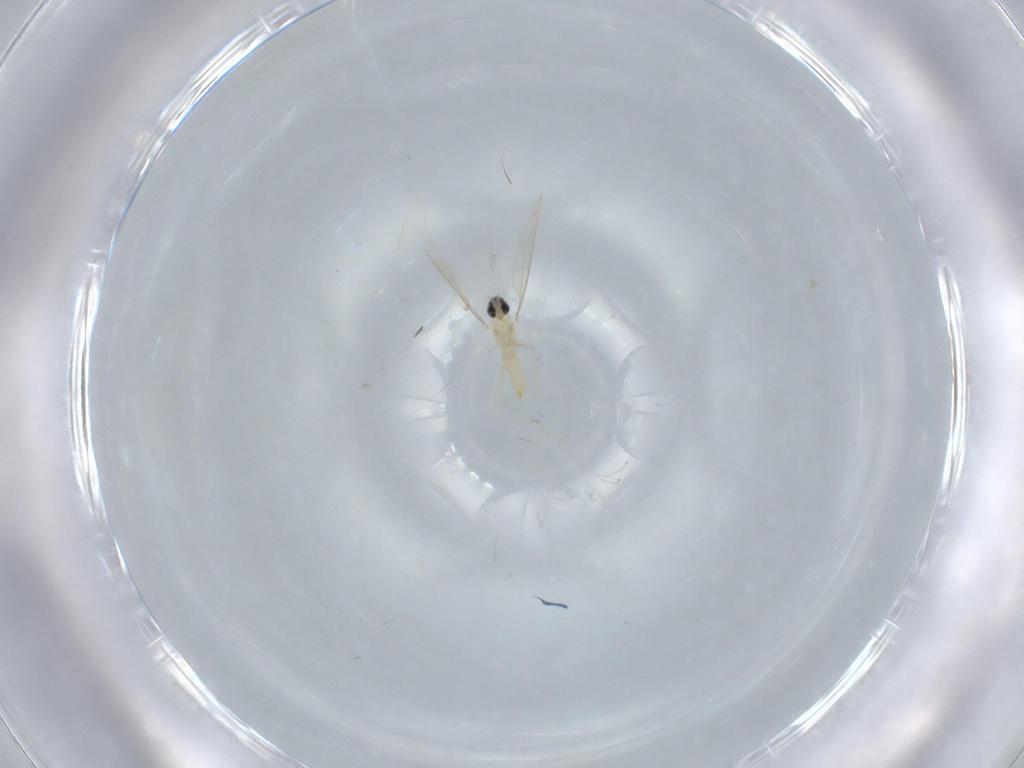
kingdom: Animalia
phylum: Arthropoda
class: Insecta
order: Diptera
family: Cecidomyiidae
